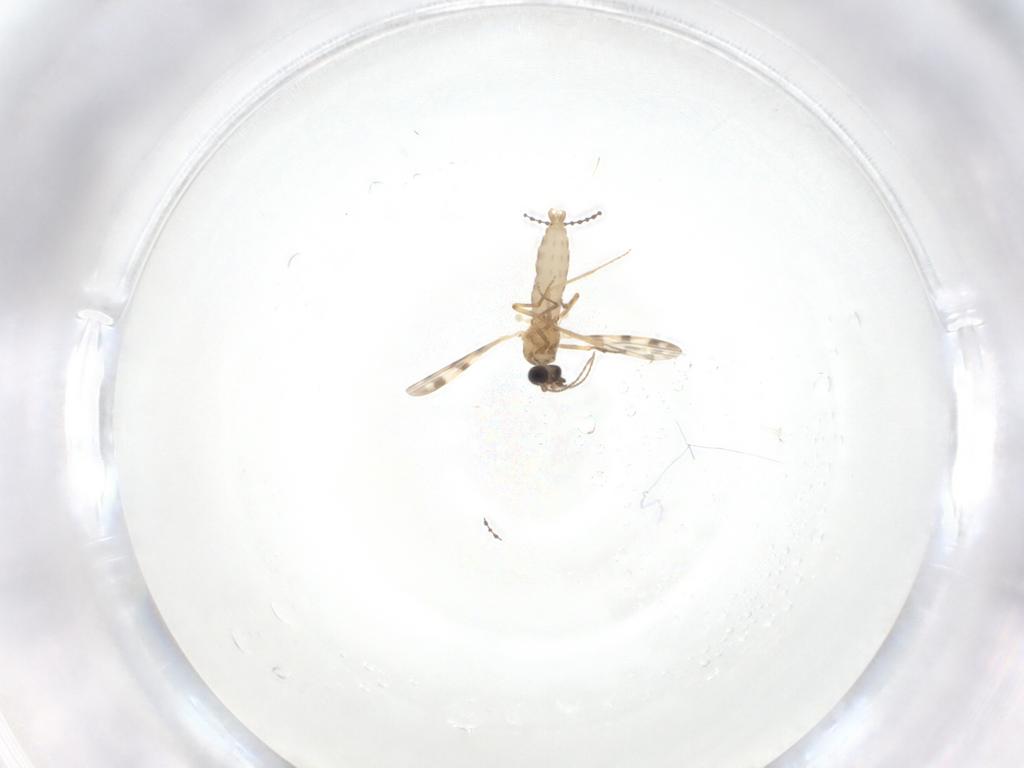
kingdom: Animalia
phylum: Arthropoda
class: Insecta
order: Diptera
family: Cecidomyiidae
